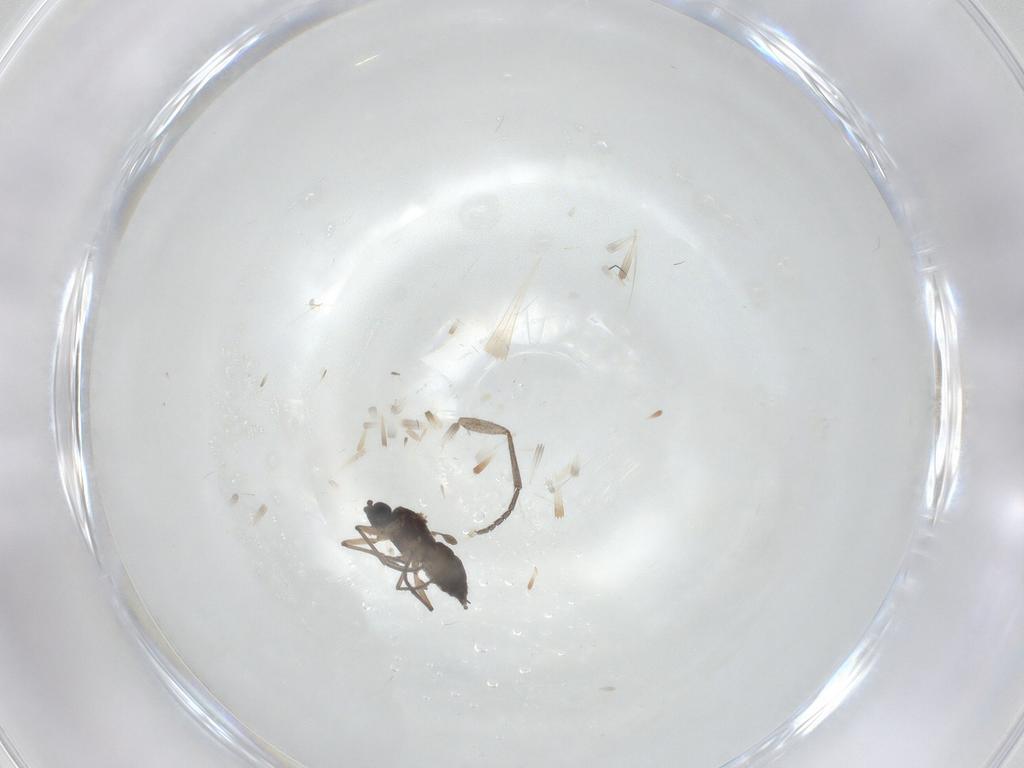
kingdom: Animalia
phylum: Arthropoda
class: Insecta
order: Diptera
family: Sciaridae
